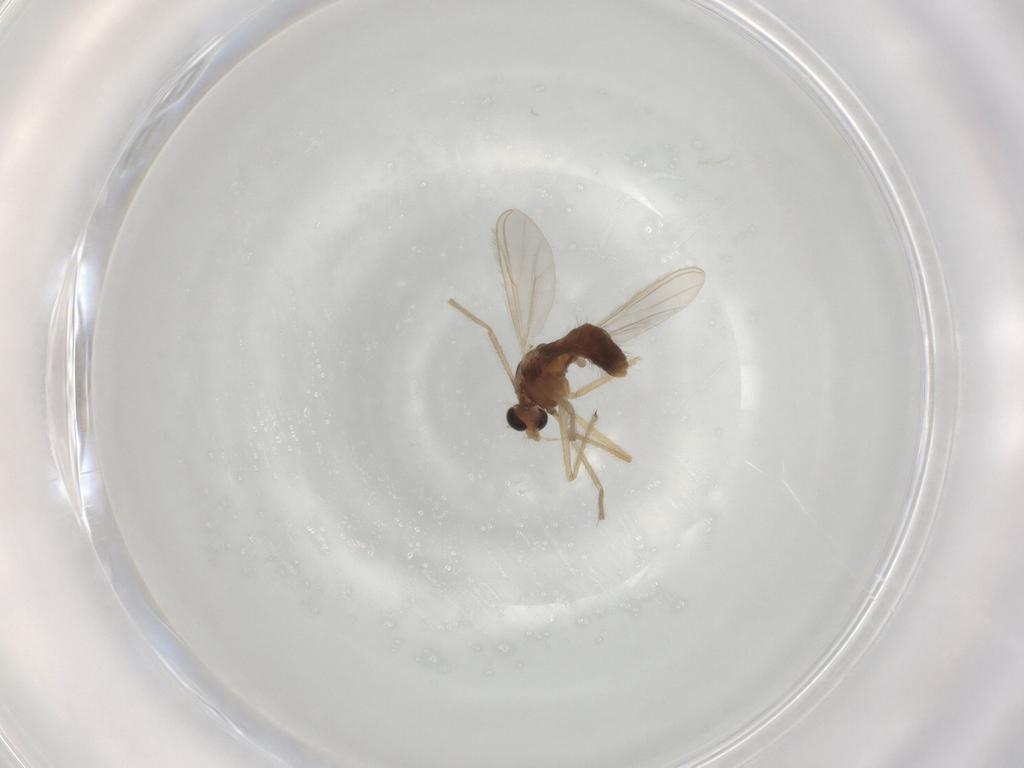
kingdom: Animalia
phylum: Arthropoda
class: Insecta
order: Diptera
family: Chironomidae
